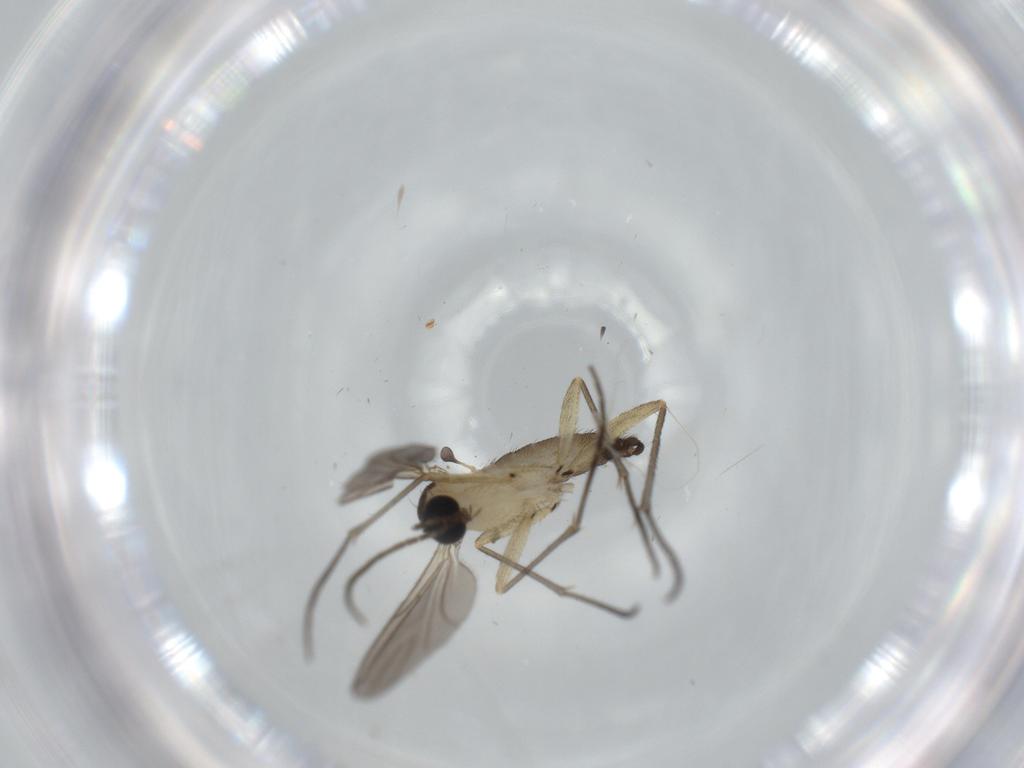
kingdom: Animalia
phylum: Arthropoda
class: Insecta
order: Diptera
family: Sciaridae
